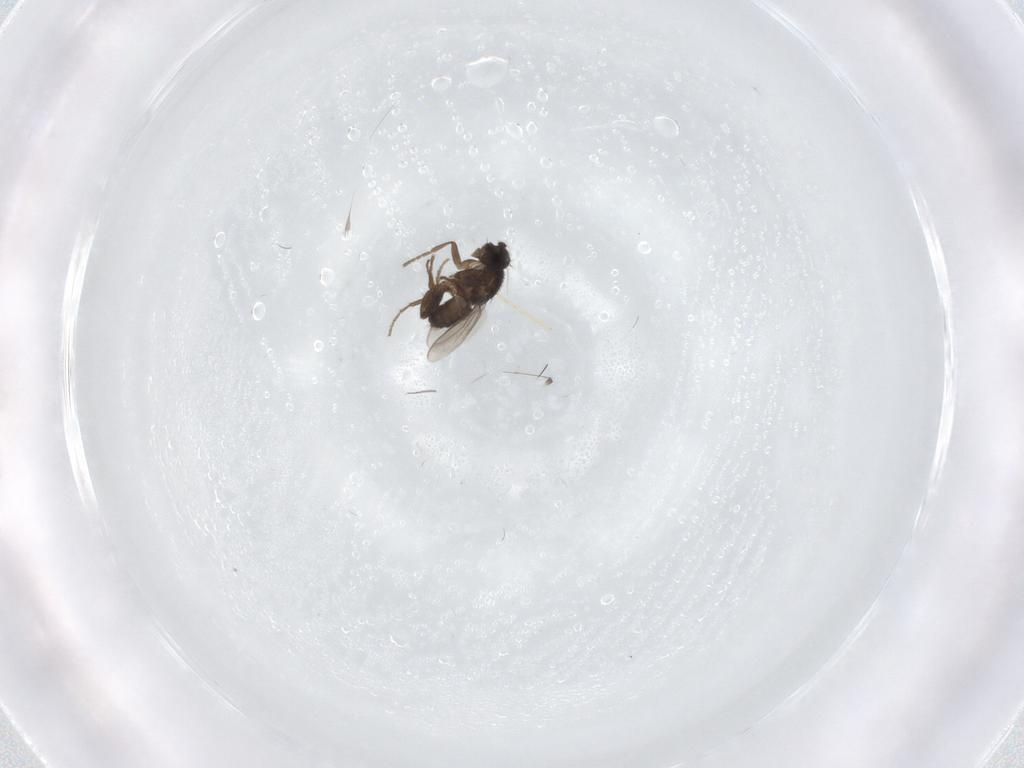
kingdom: Animalia
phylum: Arthropoda
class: Insecta
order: Diptera
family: Chironomidae
